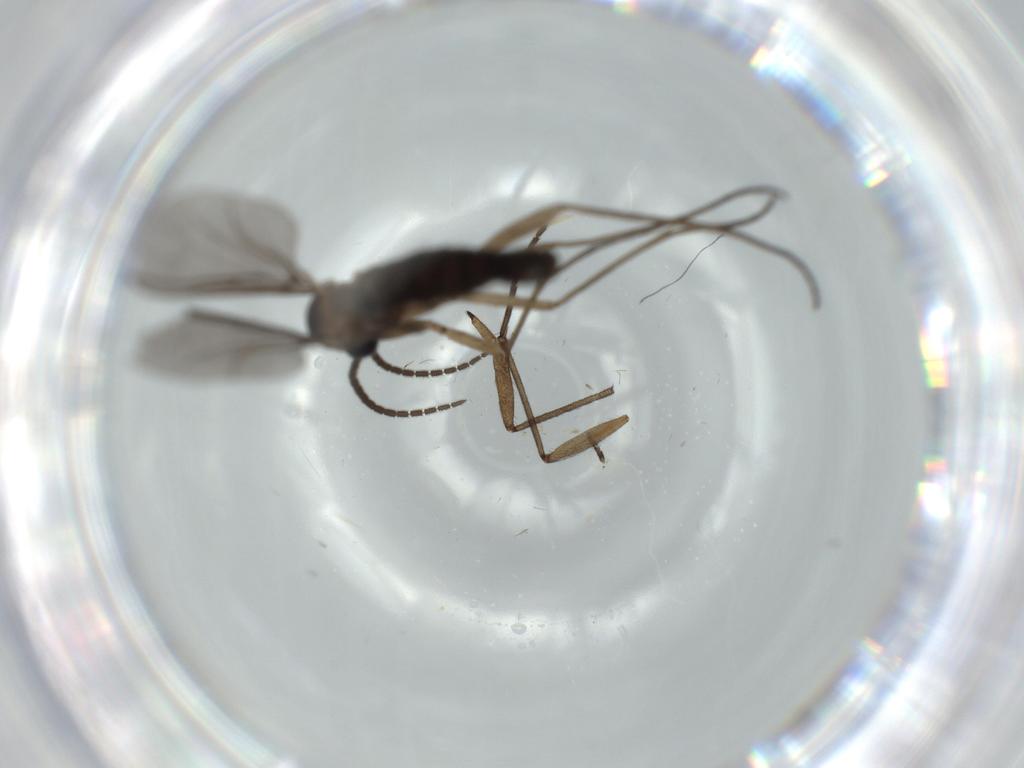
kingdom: Animalia
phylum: Arthropoda
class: Insecta
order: Diptera
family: Sciaridae
